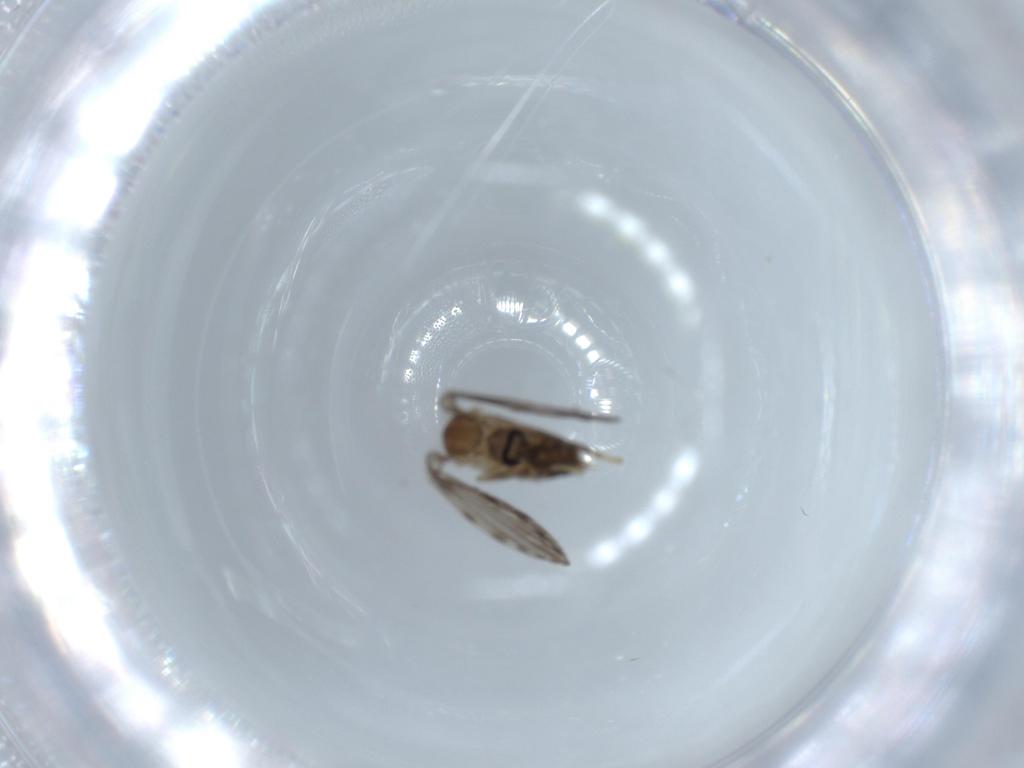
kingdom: Animalia
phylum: Arthropoda
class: Insecta
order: Diptera
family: Psychodidae
